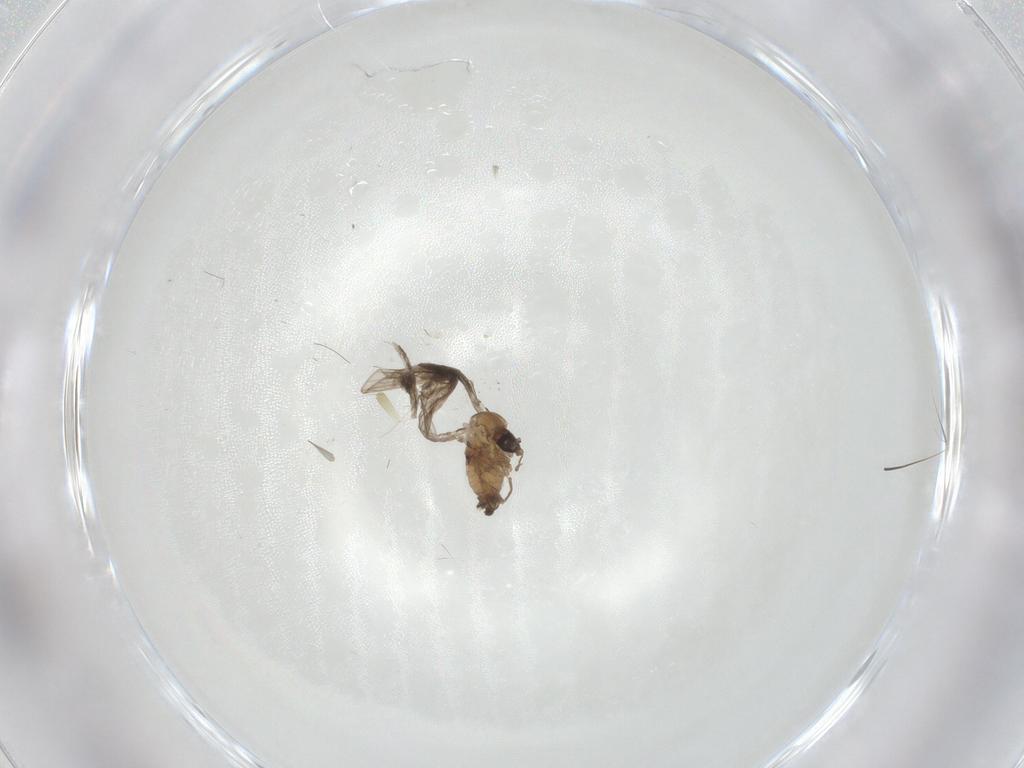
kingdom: Animalia
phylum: Arthropoda
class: Insecta
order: Diptera
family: Psychodidae
